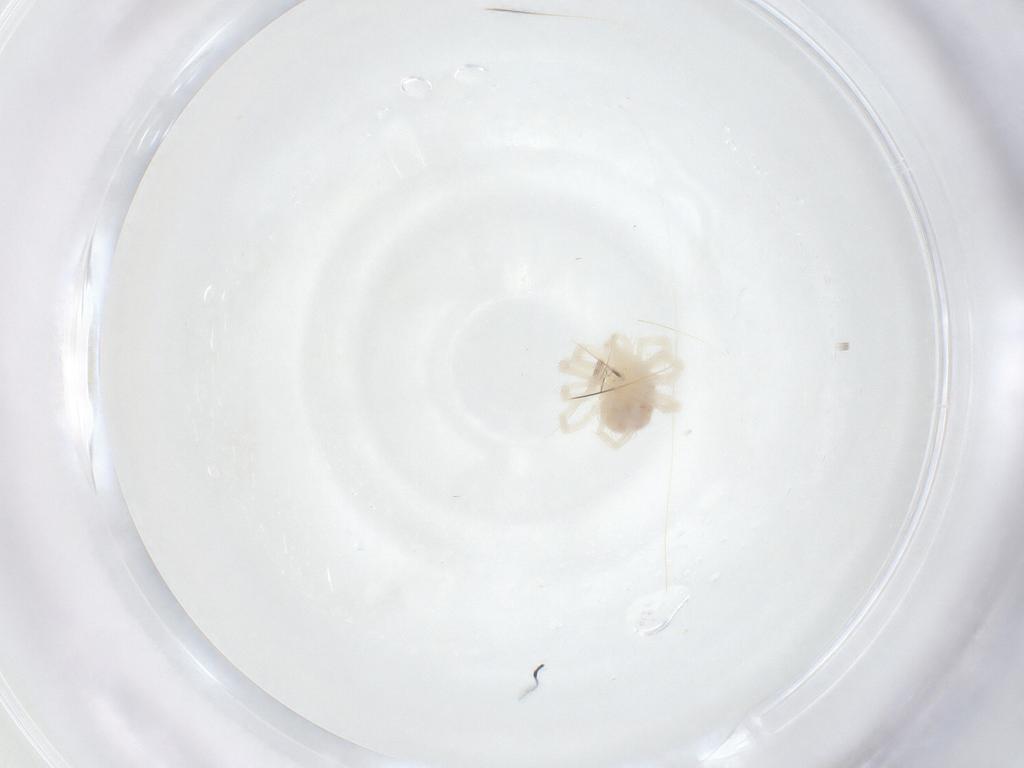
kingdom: Animalia
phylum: Arthropoda
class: Arachnida
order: Trombidiformes
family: Anystidae
